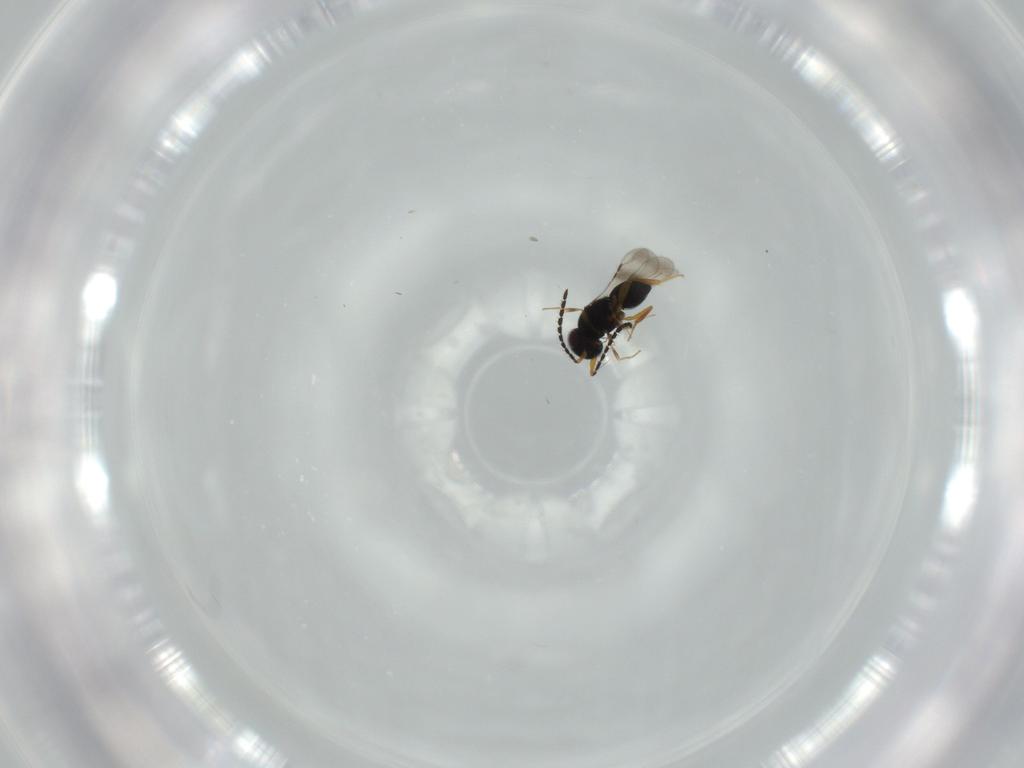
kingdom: Animalia
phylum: Arthropoda
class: Insecta
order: Hymenoptera
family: Pompilidae
